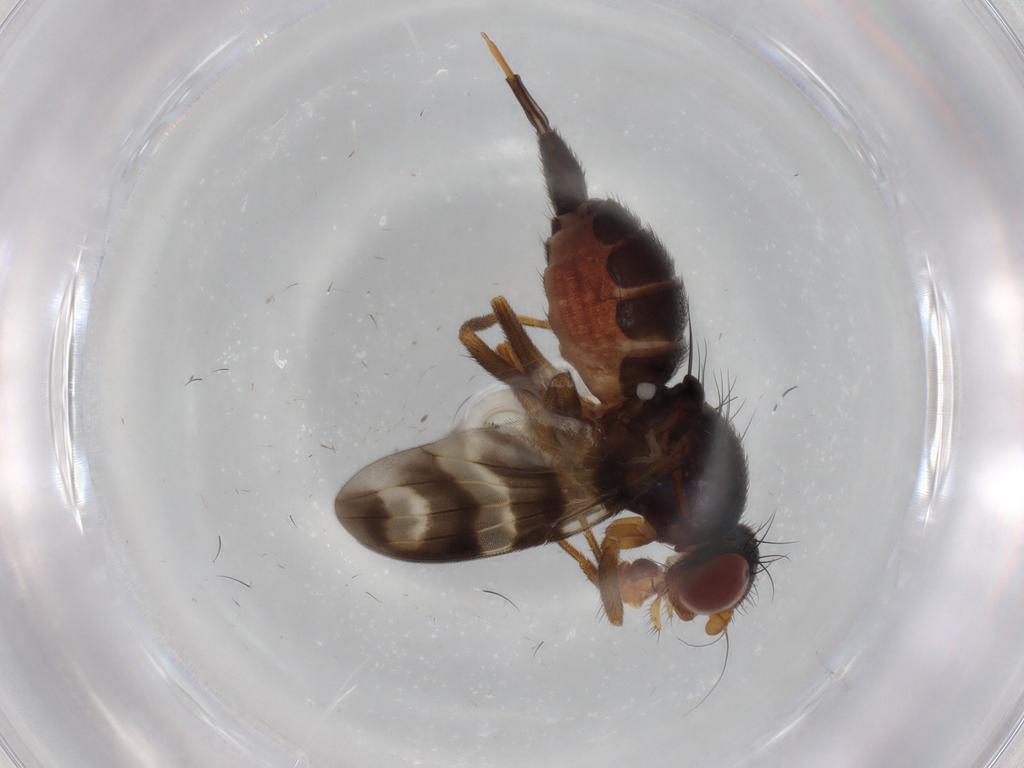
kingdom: Animalia
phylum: Arthropoda
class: Insecta
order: Diptera
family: Ulidiidae
